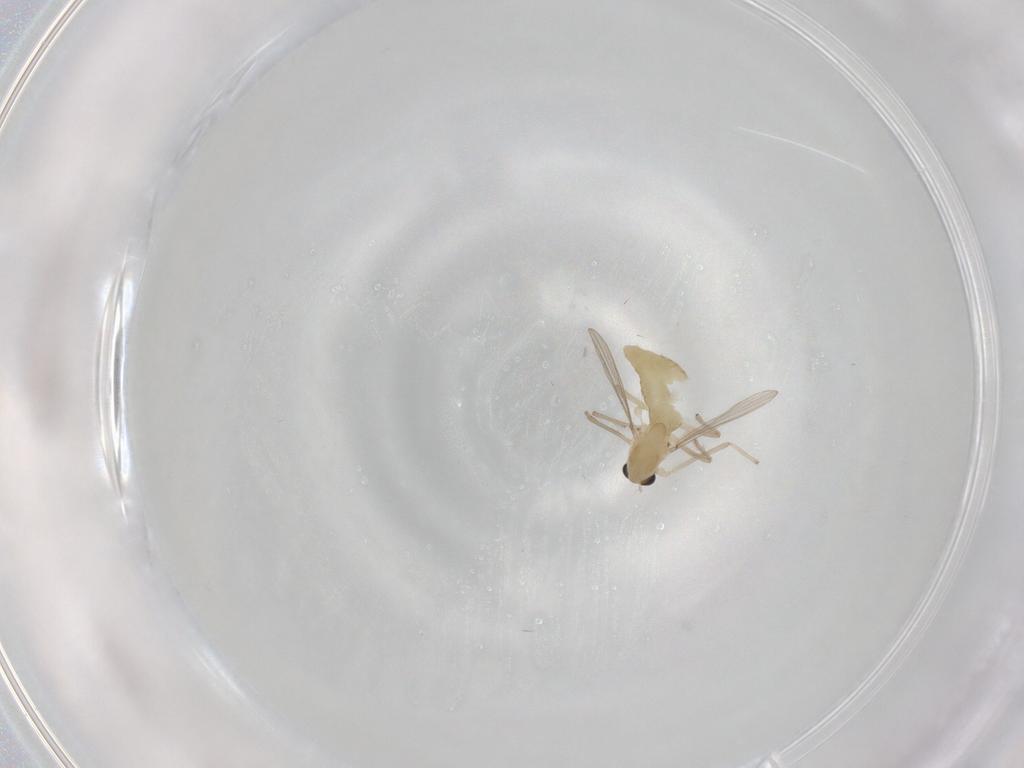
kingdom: Animalia
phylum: Arthropoda
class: Insecta
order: Diptera
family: Chironomidae
